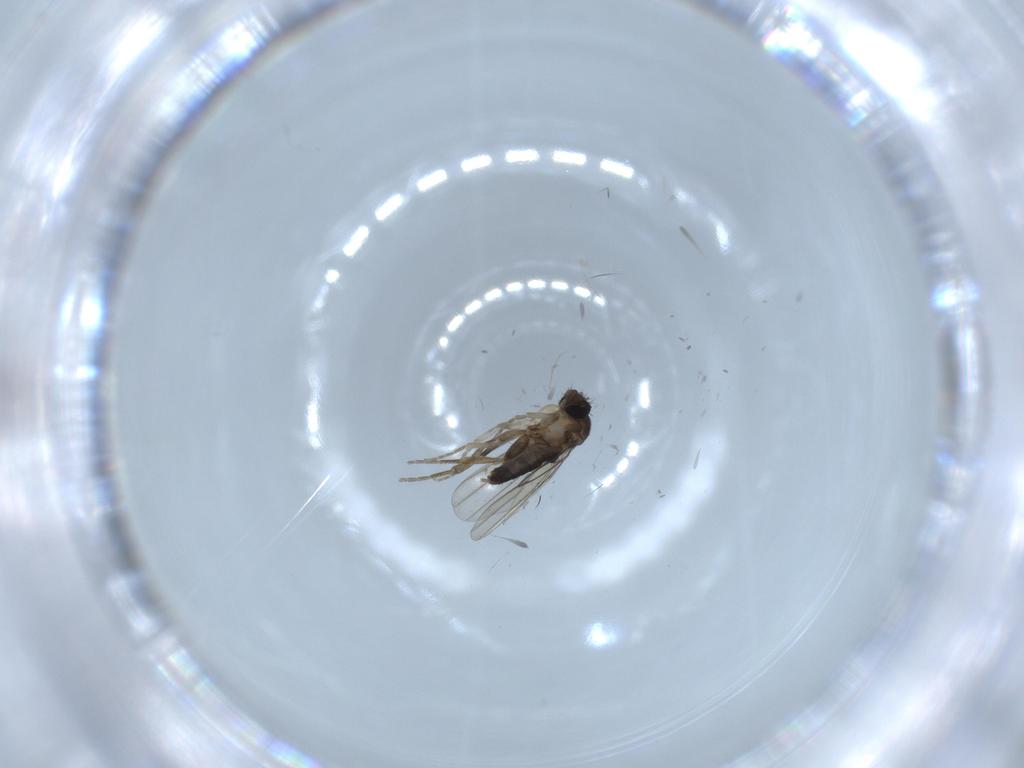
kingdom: Animalia
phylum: Arthropoda
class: Insecta
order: Diptera
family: Phoridae
